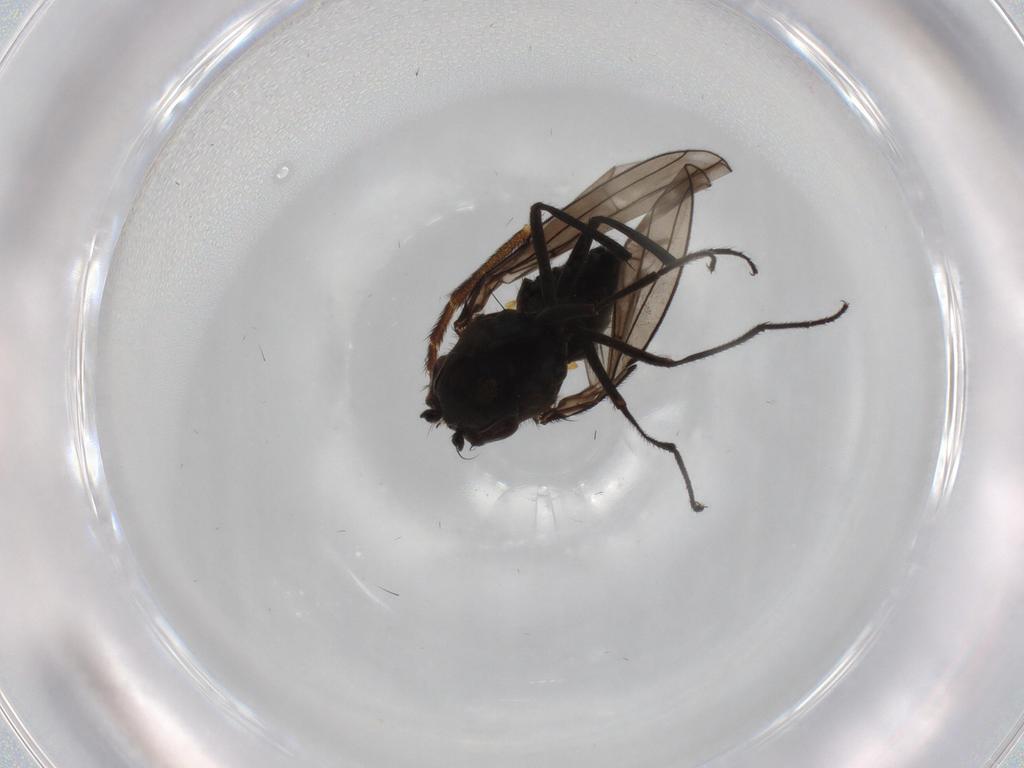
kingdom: Animalia
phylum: Arthropoda
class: Insecta
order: Diptera
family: Ephydridae
